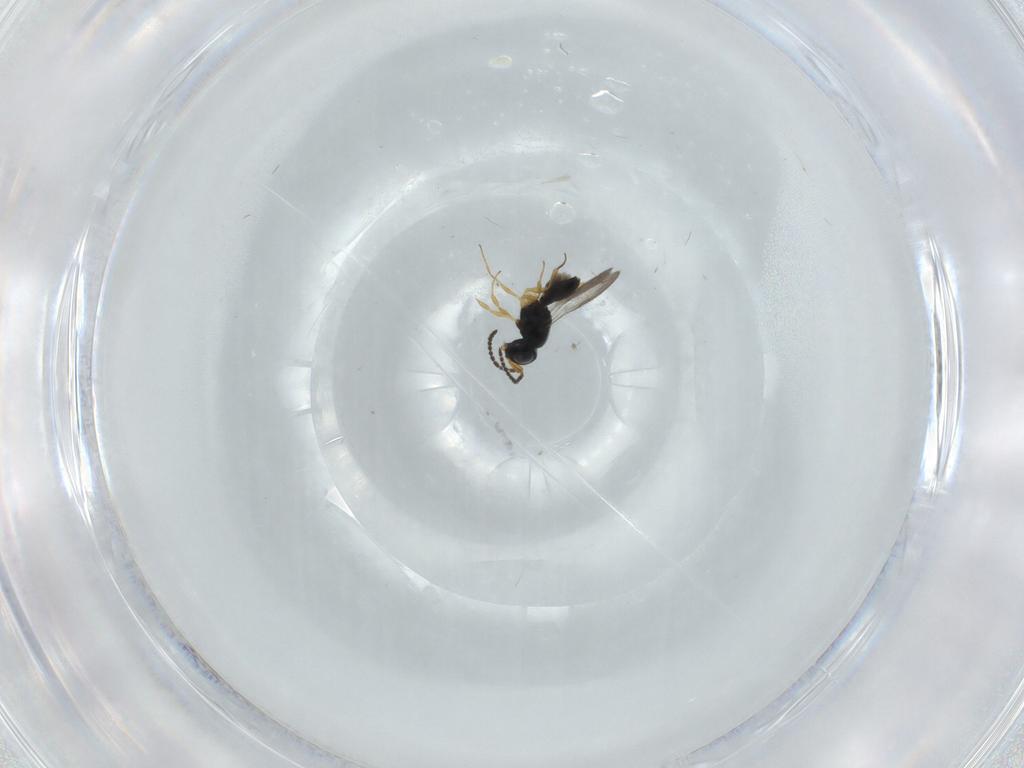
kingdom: Animalia
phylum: Arthropoda
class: Insecta
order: Hymenoptera
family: Scelionidae
